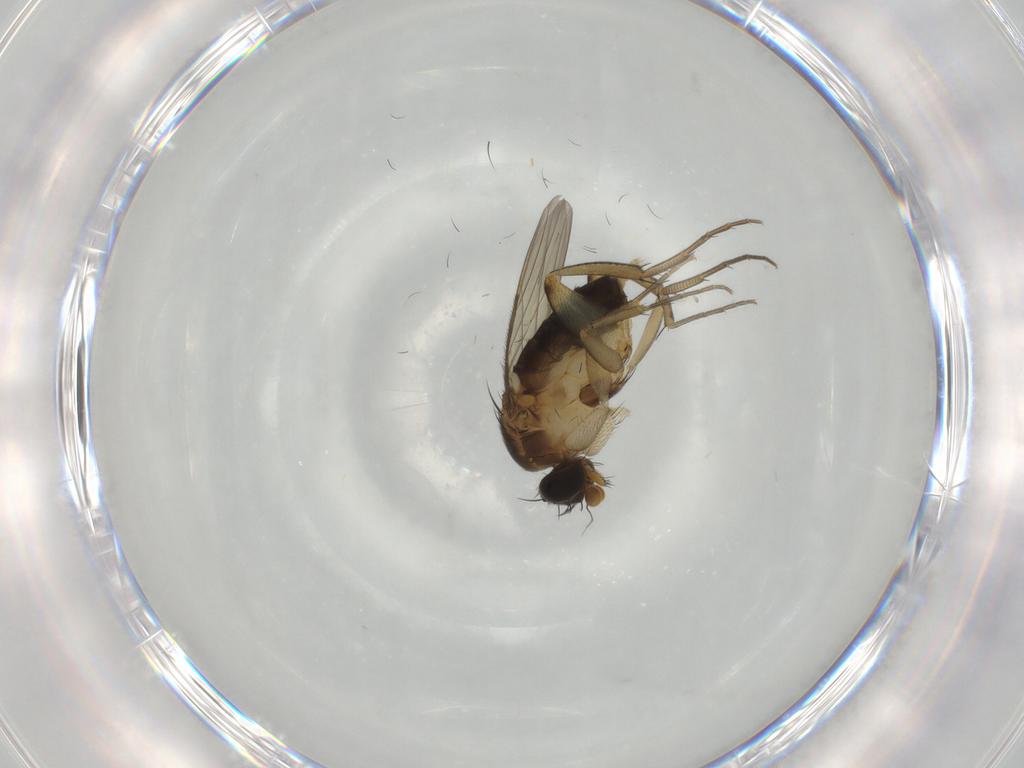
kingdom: Animalia
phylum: Arthropoda
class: Insecta
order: Diptera
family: Phoridae
